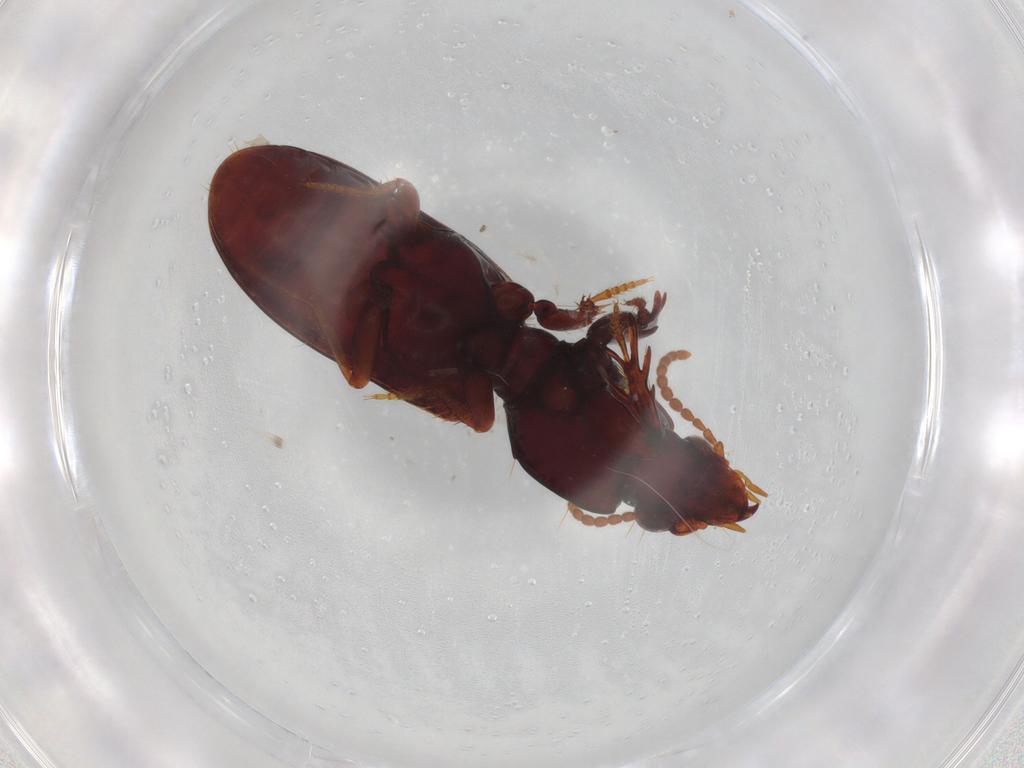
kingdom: Animalia
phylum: Arthropoda
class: Insecta
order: Coleoptera
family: Carabidae
